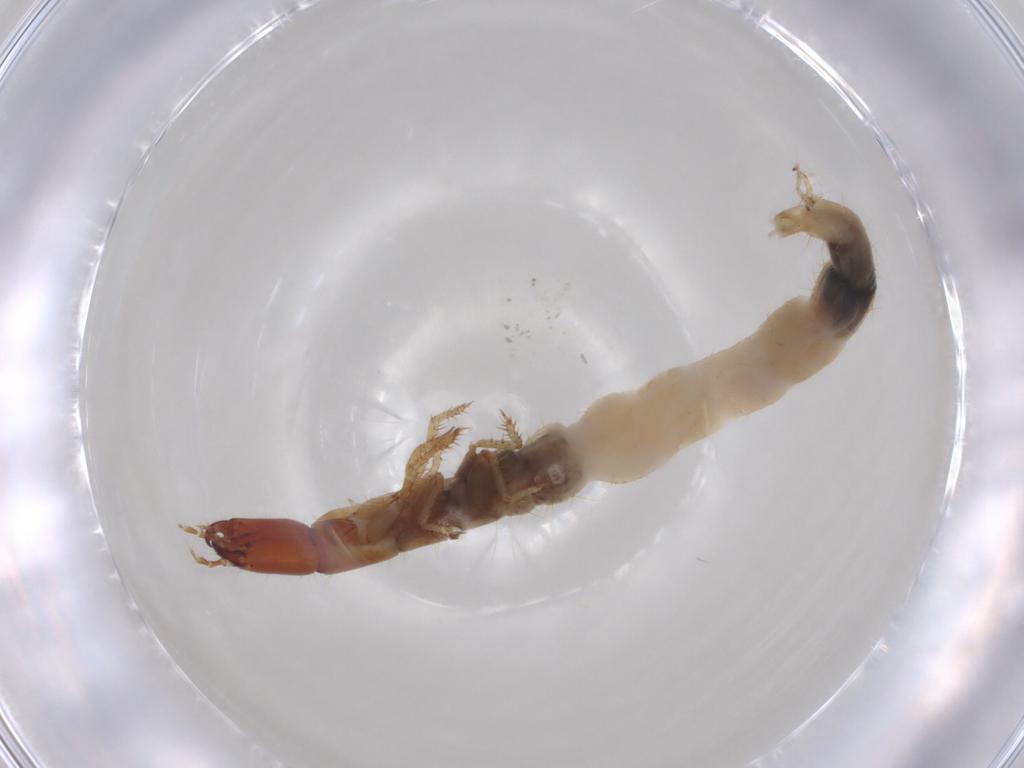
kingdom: Animalia
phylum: Arthropoda
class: Insecta
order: Coleoptera
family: Staphylinidae
